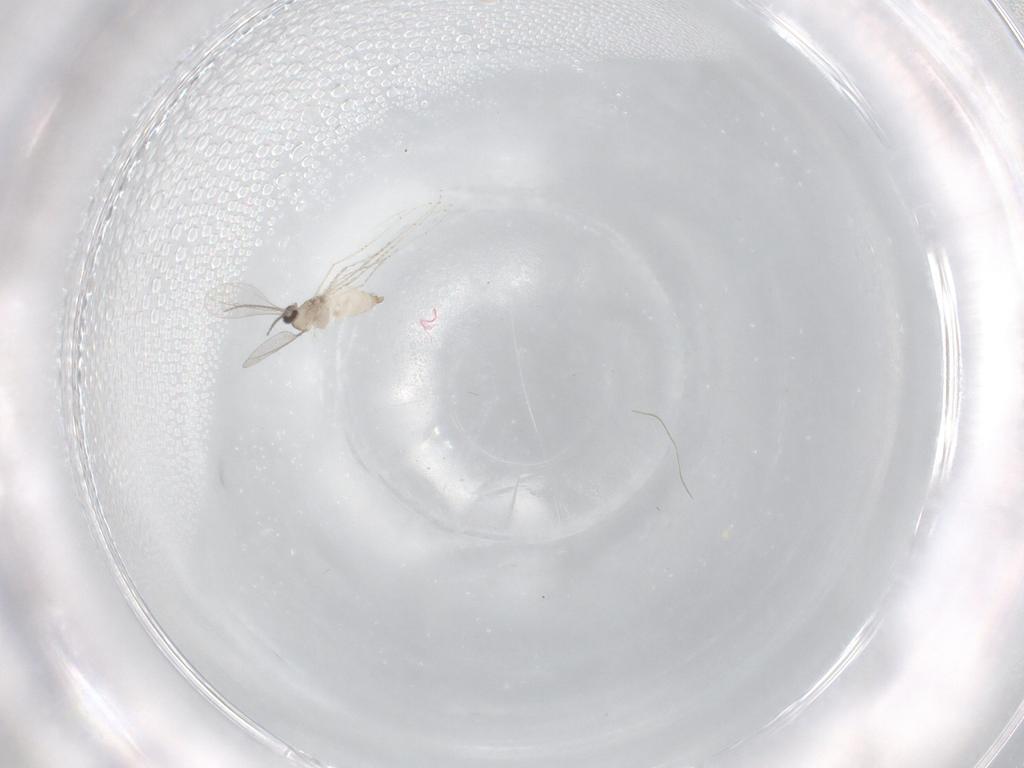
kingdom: Animalia
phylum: Arthropoda
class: Insecta
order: Diptera
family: Cecidomyiidae
